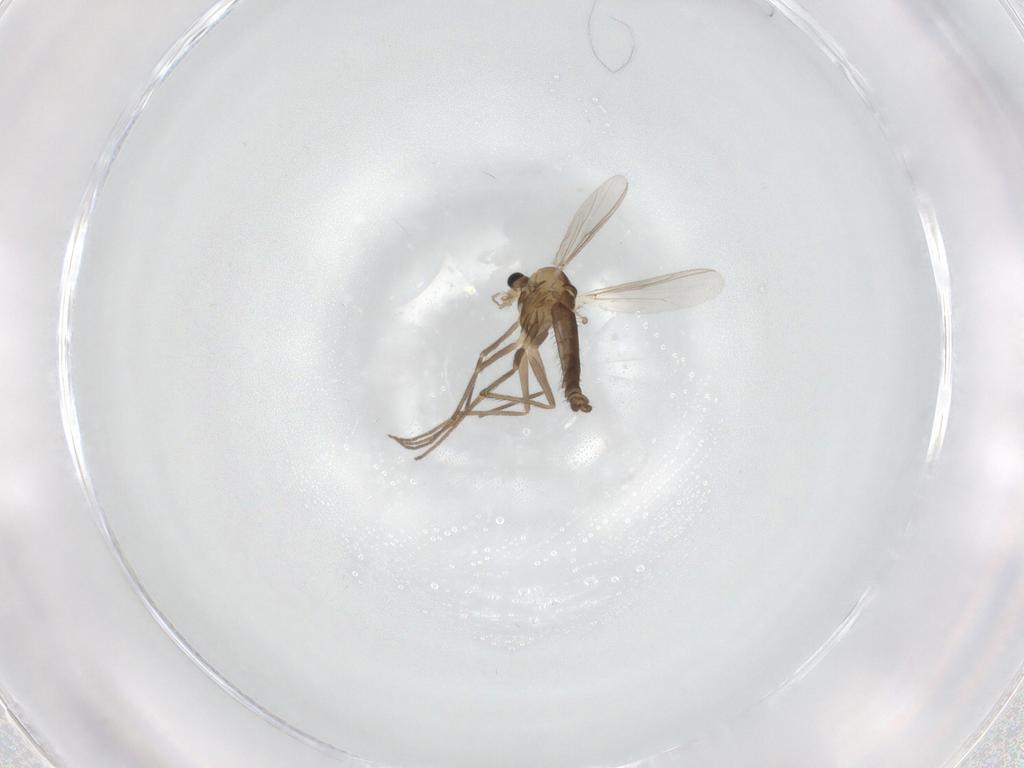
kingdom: Animalia
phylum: Arthropoda
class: Insecta
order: Diptera
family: Chironomidae
